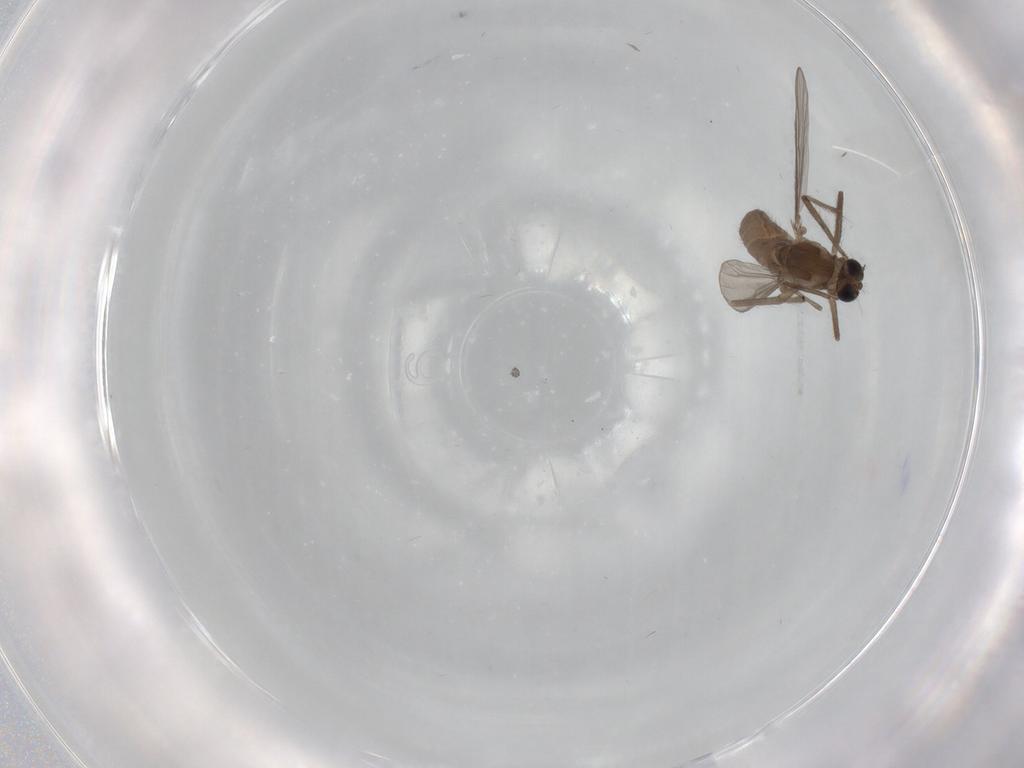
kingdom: Animalia
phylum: Arthropoda
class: Insecta
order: Diptera
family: Chironomidae
